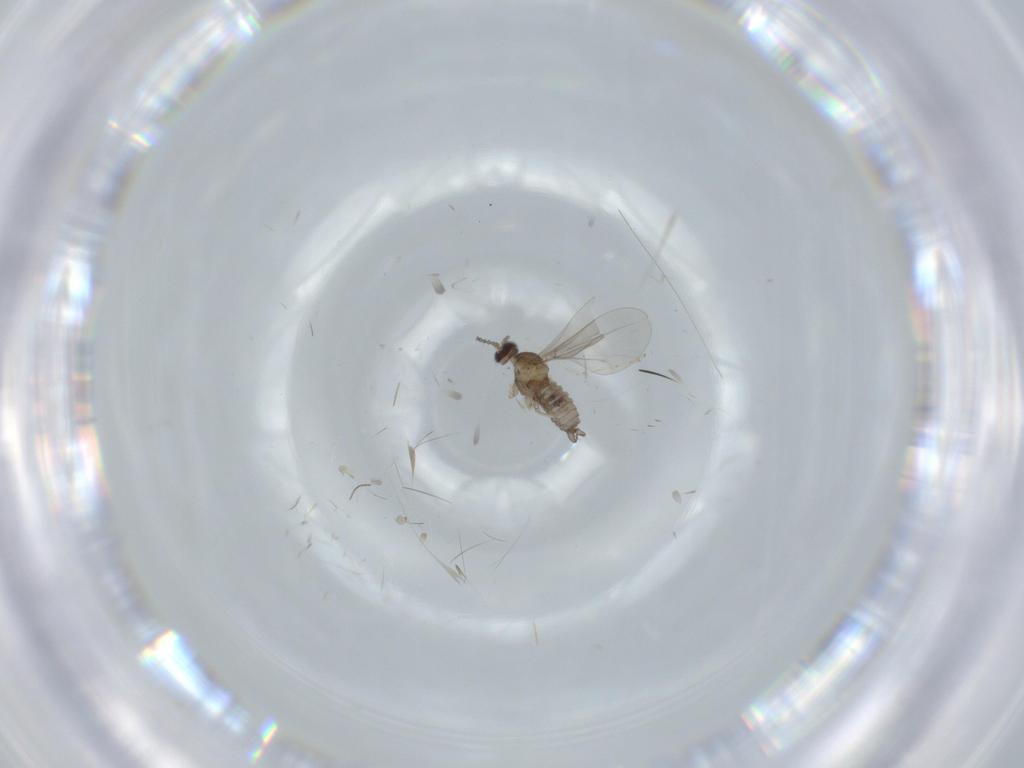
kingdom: Animalia
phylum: Arthropoda
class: Insecta
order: Diptera
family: Cecidomyiidae
